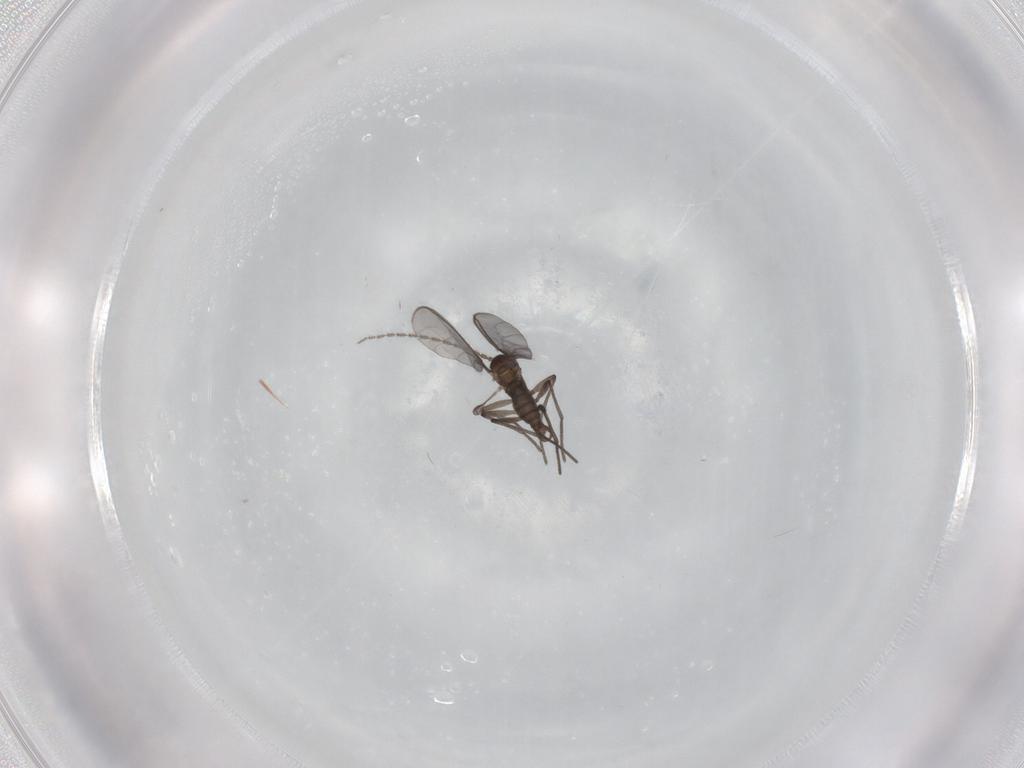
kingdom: Animalia
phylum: Arthropoda
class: Insecta
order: Diptera
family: Sciaridae
